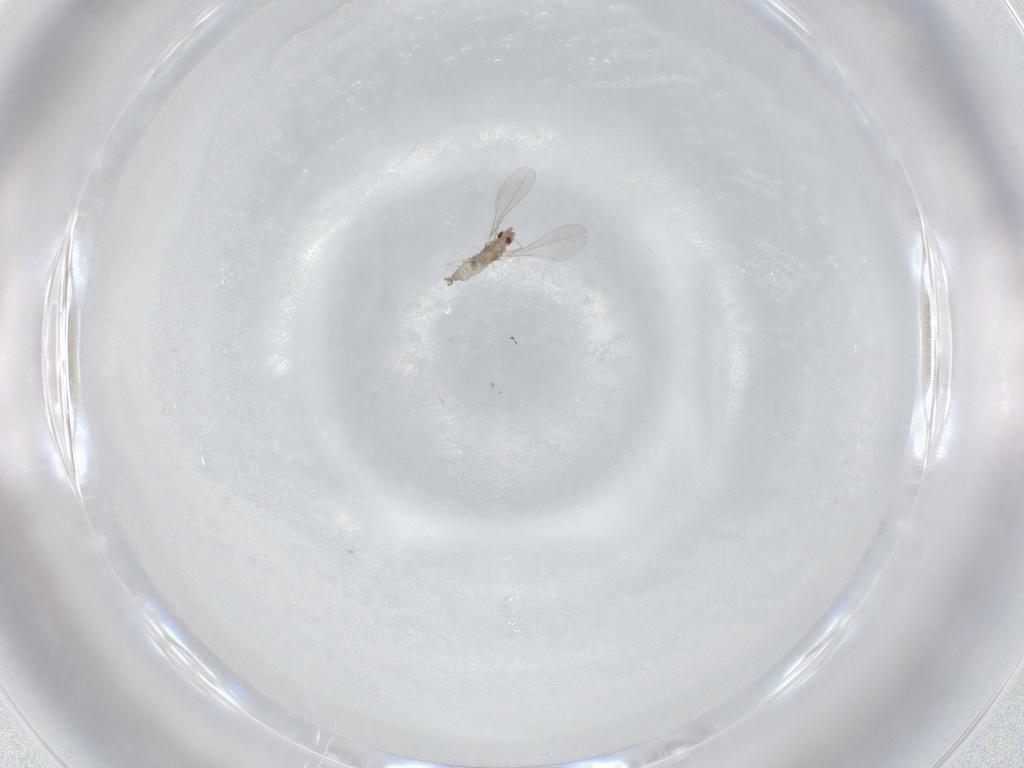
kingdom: Animalia
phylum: Arthropoda
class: Insecta
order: Diptera
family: Cecidomyiidae
